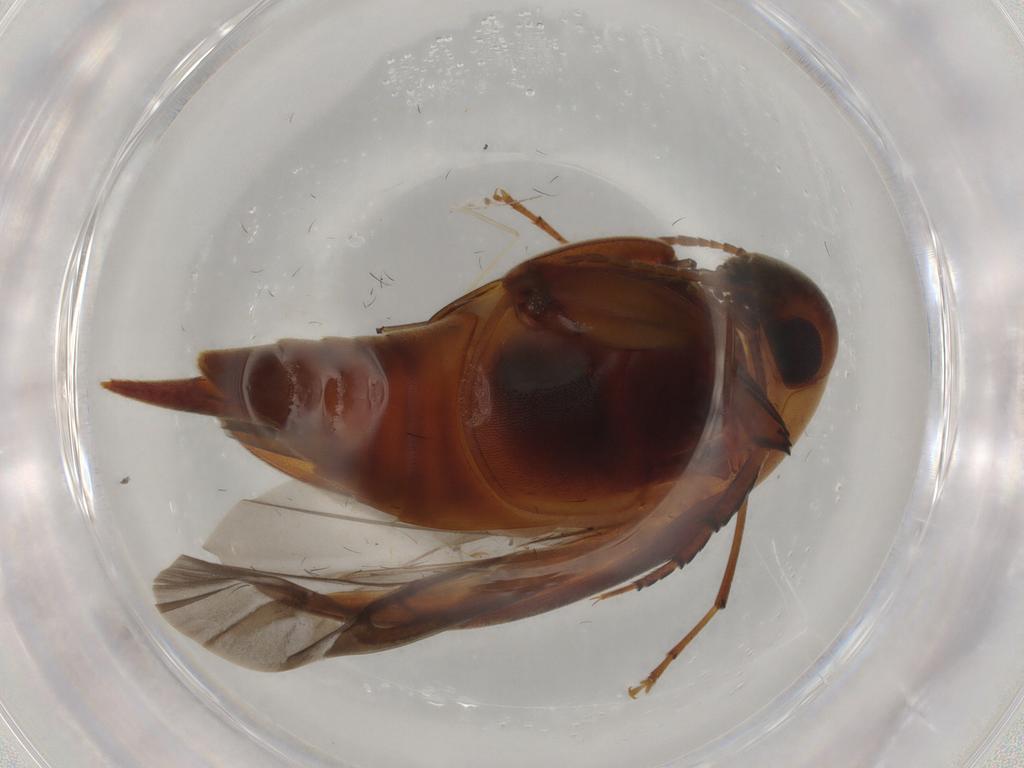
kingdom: Animalia
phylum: Arthropoda
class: Insecta
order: Coleoptera
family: Mordellidae
